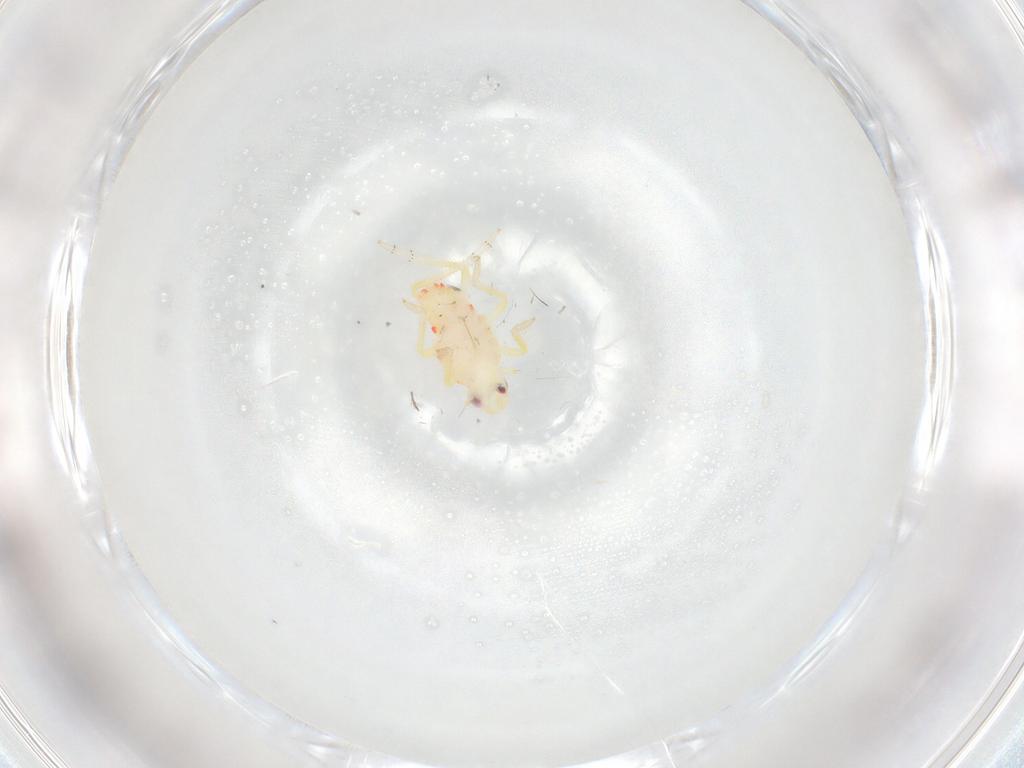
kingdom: Animalia
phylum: Arthropoda
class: Insecta
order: Hemiptera
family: Tropiduchidae
